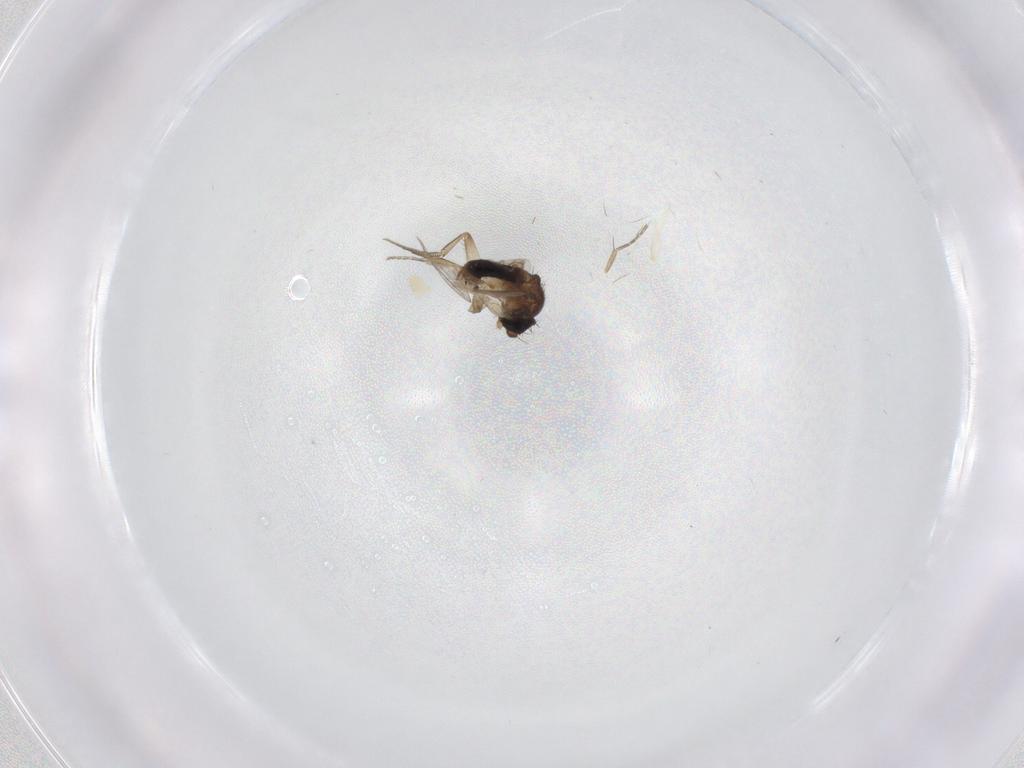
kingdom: Animalia
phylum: Arthropoda
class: Insecta
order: Diptera
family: Phoridae
